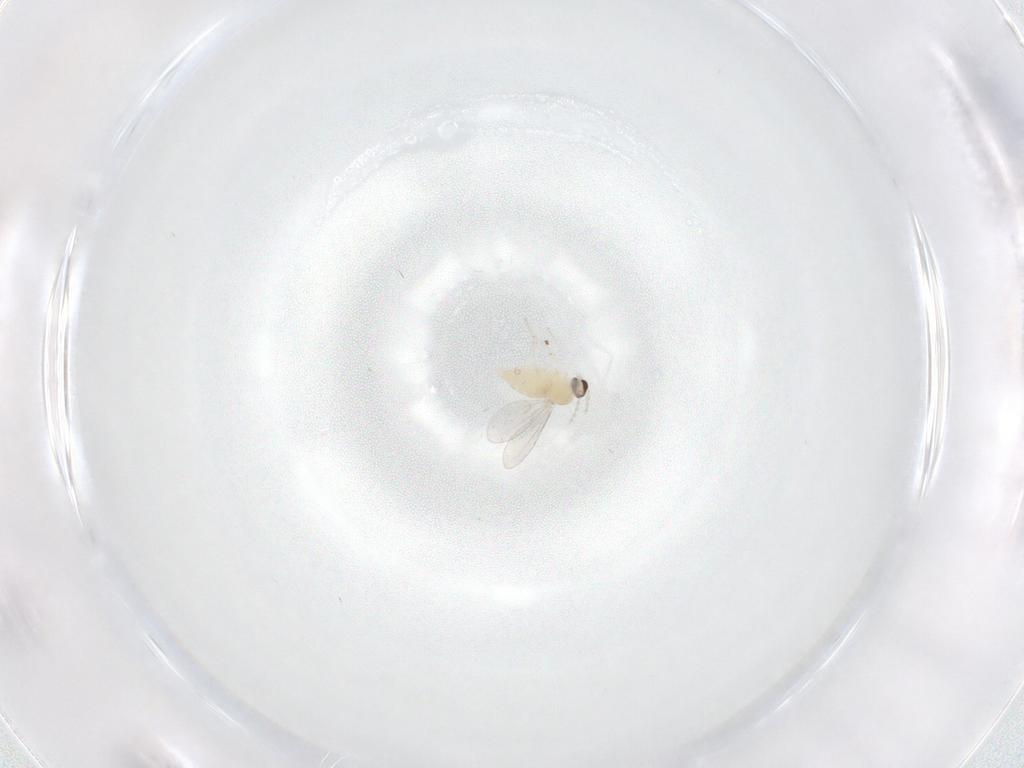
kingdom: Animalia
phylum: Arthropoda
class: Insecta
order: Diptera
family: Cecidomyiidae
